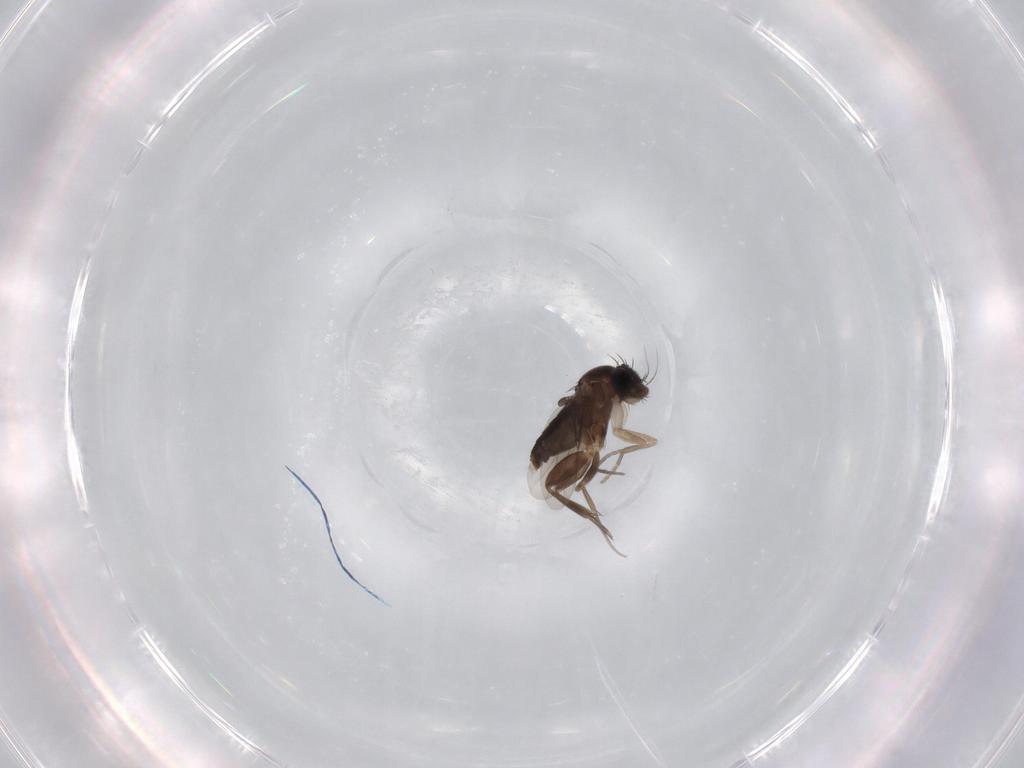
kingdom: Animalia
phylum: Arthropoda
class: Insecta
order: Diptera
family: Phoridae
